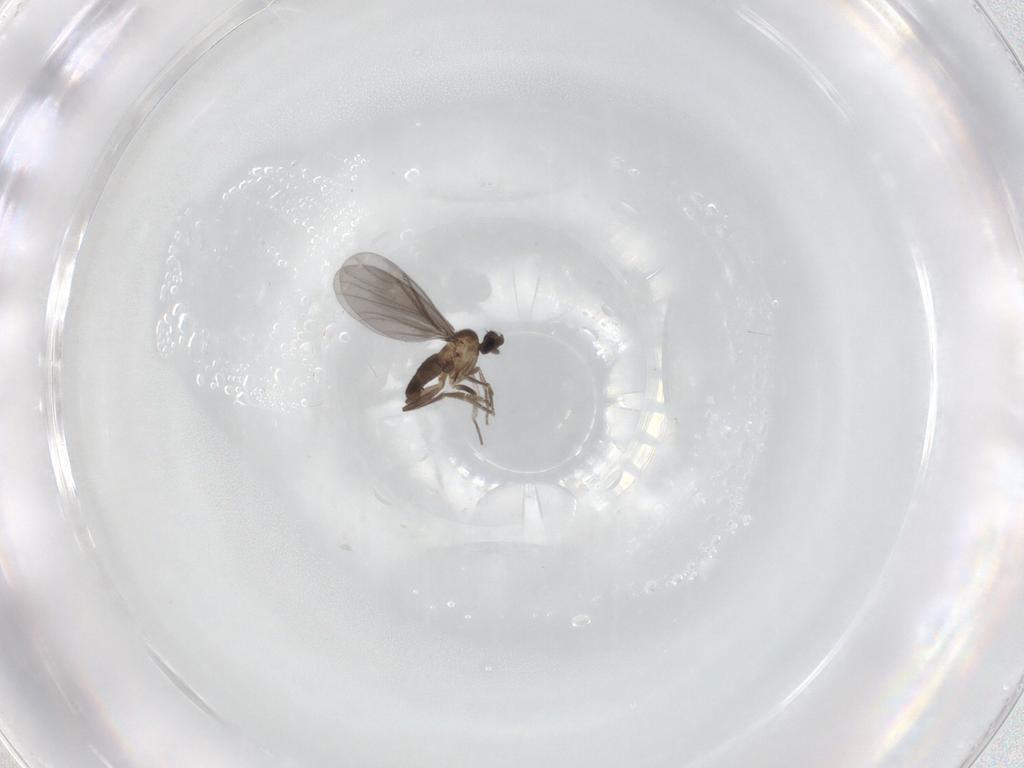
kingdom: Animalia
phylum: Arthropoda
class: Insecta
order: Diptera
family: Phoridae
